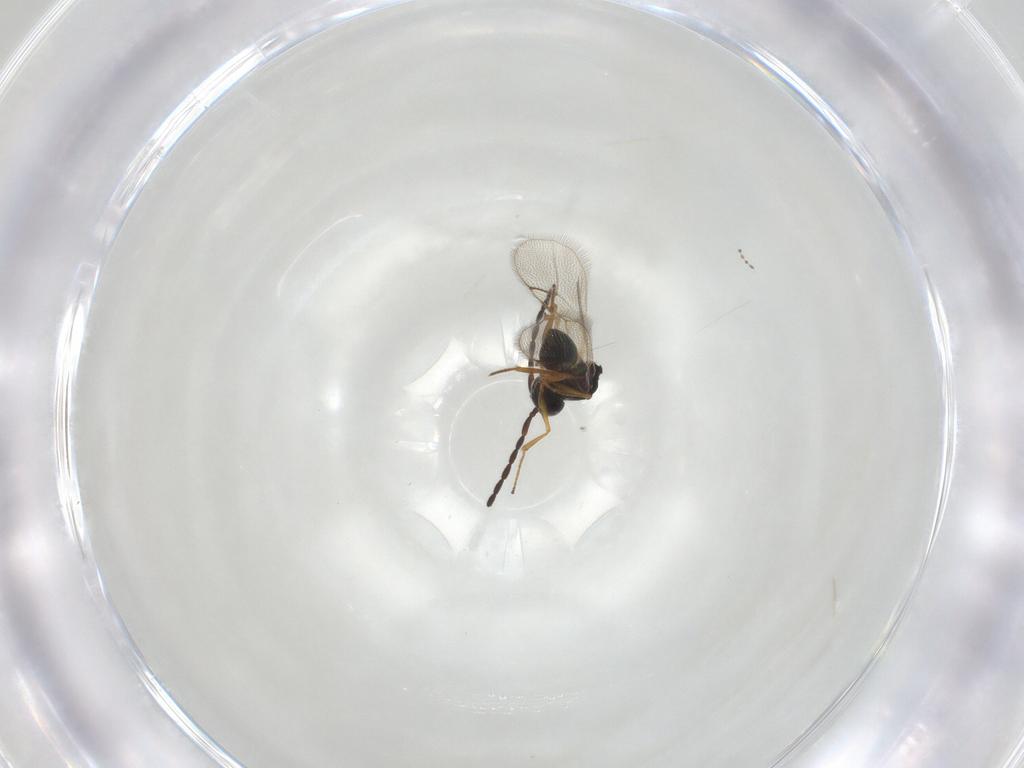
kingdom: Animalia
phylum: Arthropoda
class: Insecta
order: Hymenoptera
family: Figitidae
